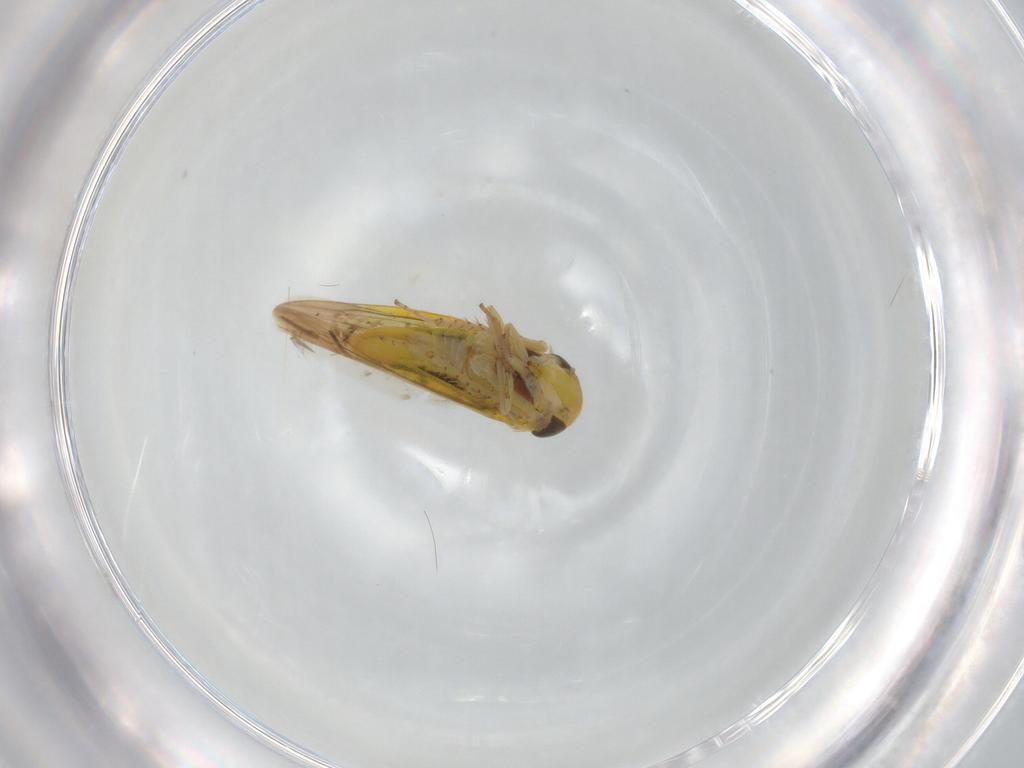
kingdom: Animalia
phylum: Arthropoda
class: Insecta
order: Hemiptera
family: Cicadellidae
